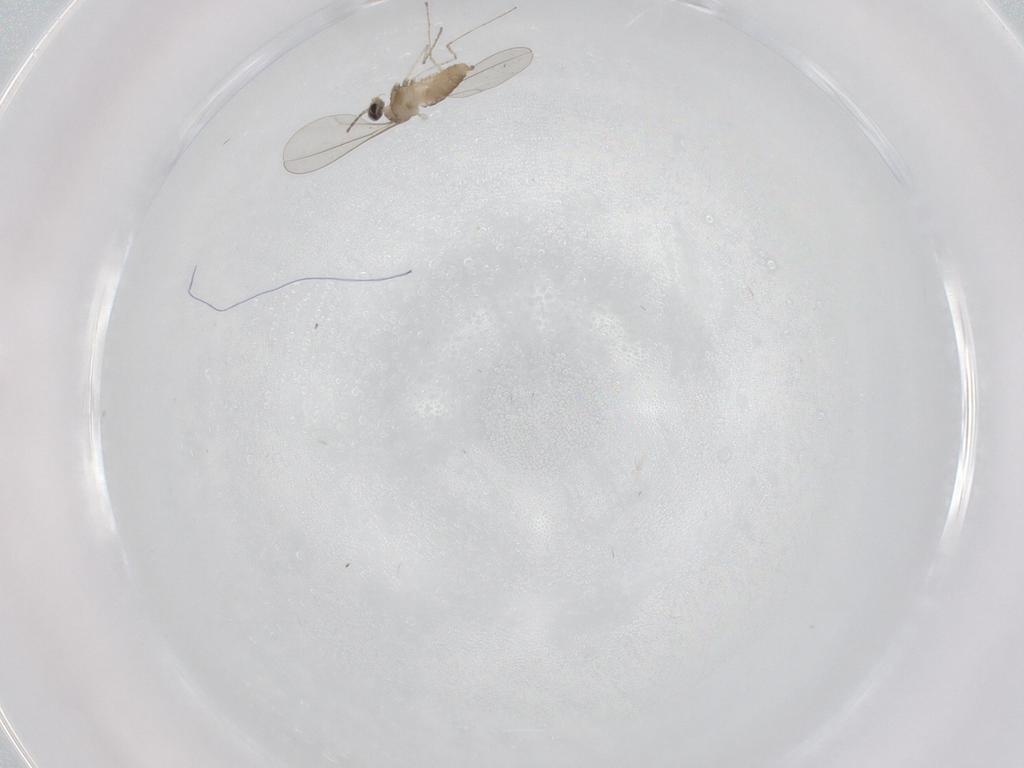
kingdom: Animalia
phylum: Arthropoda
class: Insecta
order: Diptera
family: Cecidomyiidae
